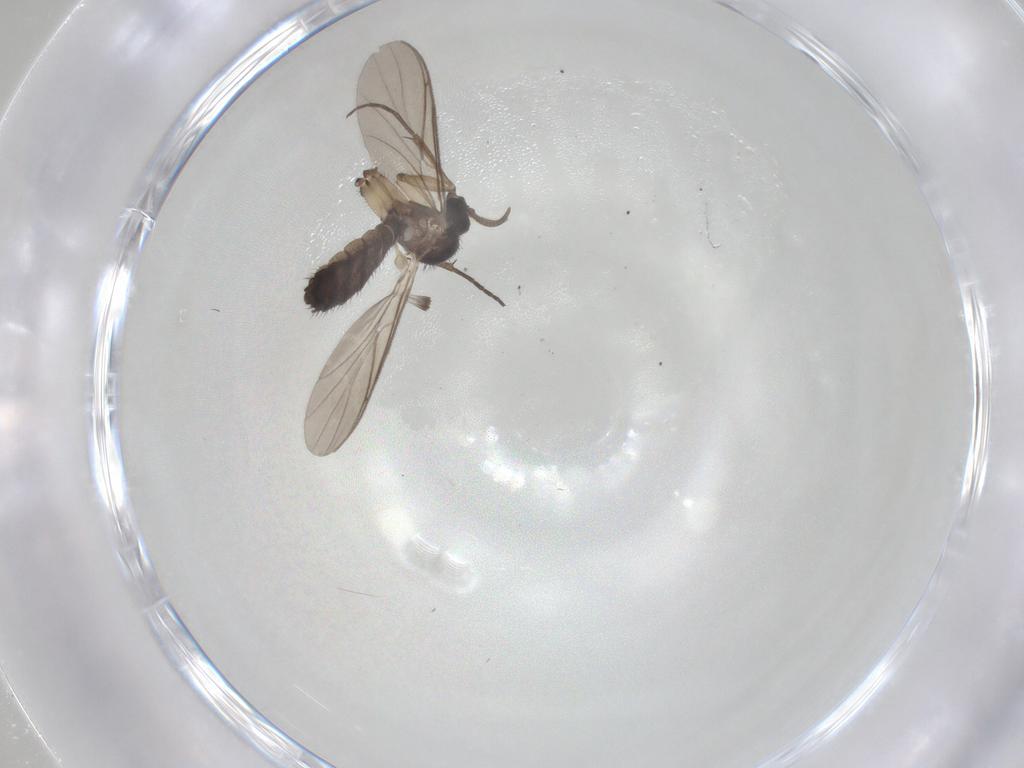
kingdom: Animalia
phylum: Arthropoda
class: Insecta
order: Diptera
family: Keroplatidae
